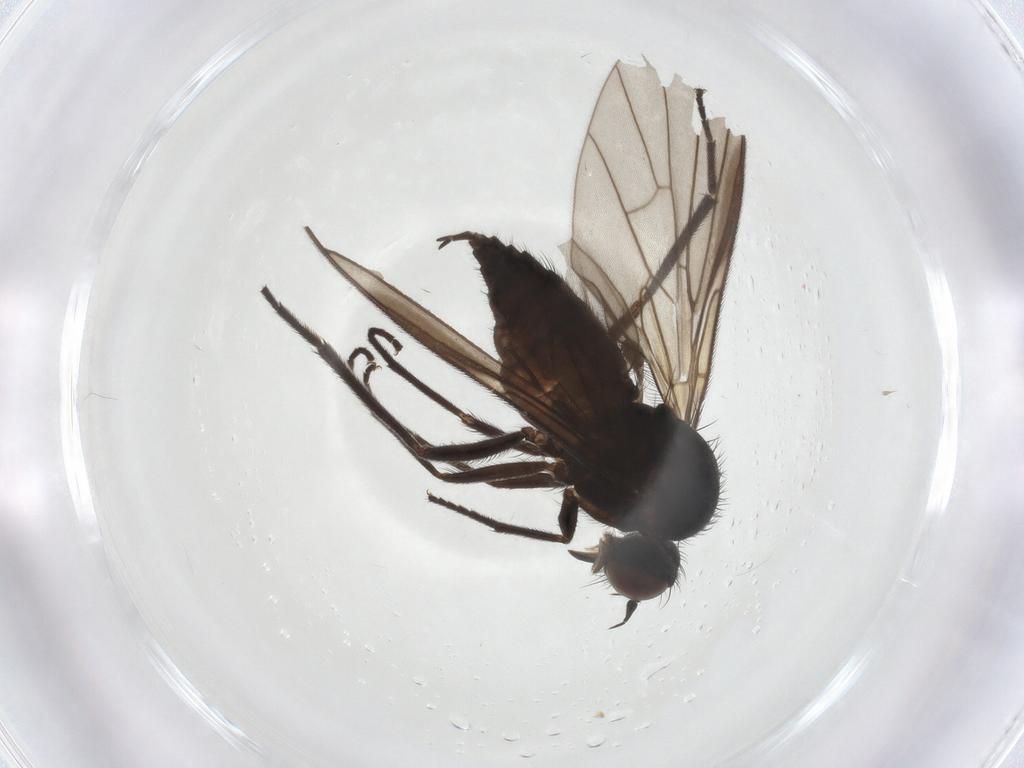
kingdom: Animalia
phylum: Arthropoda
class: Insecta
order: Diptera
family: Empididae
